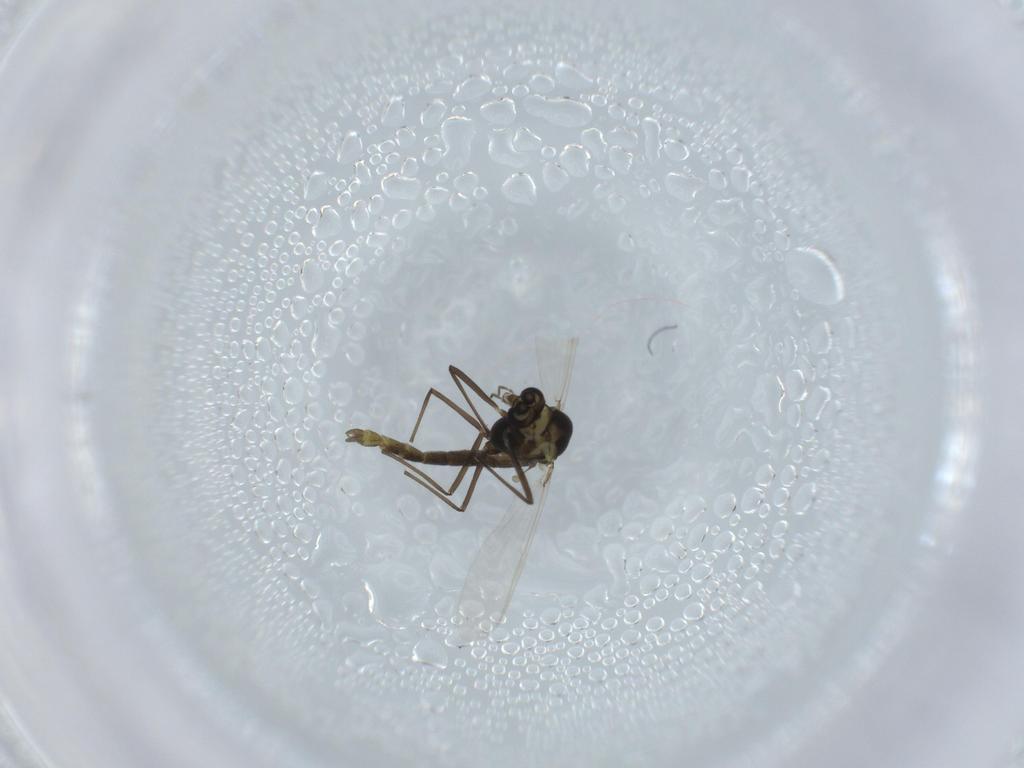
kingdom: Animalia
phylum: Arthropoda
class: Insecta
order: Diptera
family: Chironomidae
